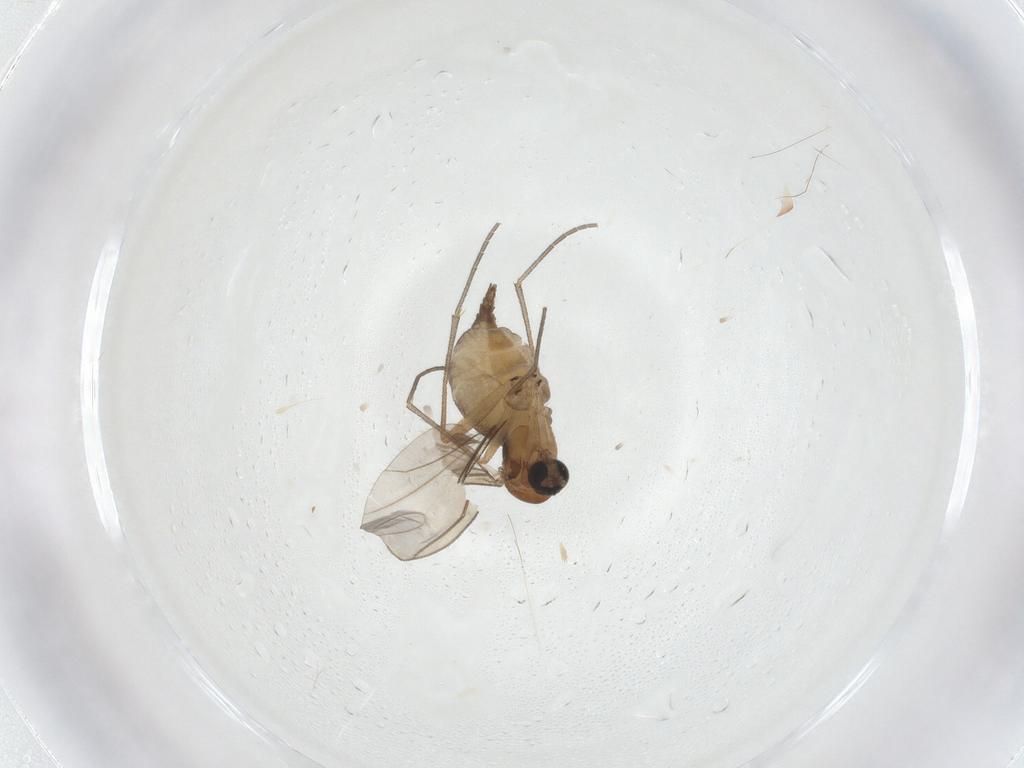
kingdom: Animalia
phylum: Arthropoda
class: Insecta
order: Diptera
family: Sciaridae
